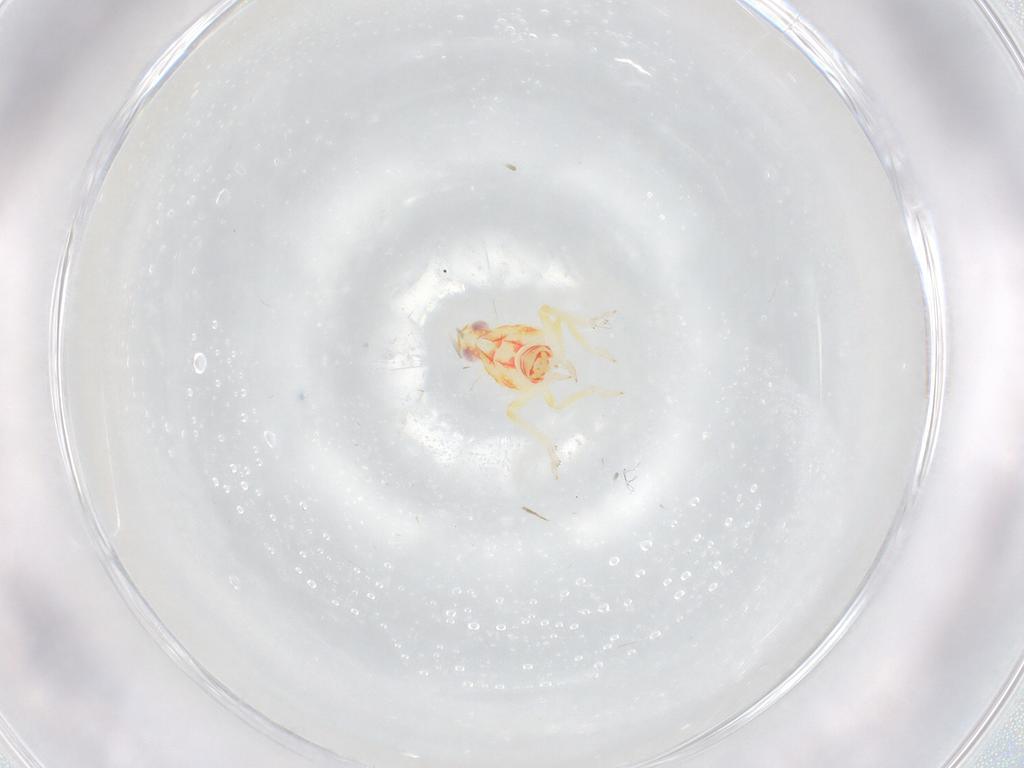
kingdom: Animalia
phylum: Arthropoda
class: Insecta
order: Hemiptera
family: Tropiduchidae
